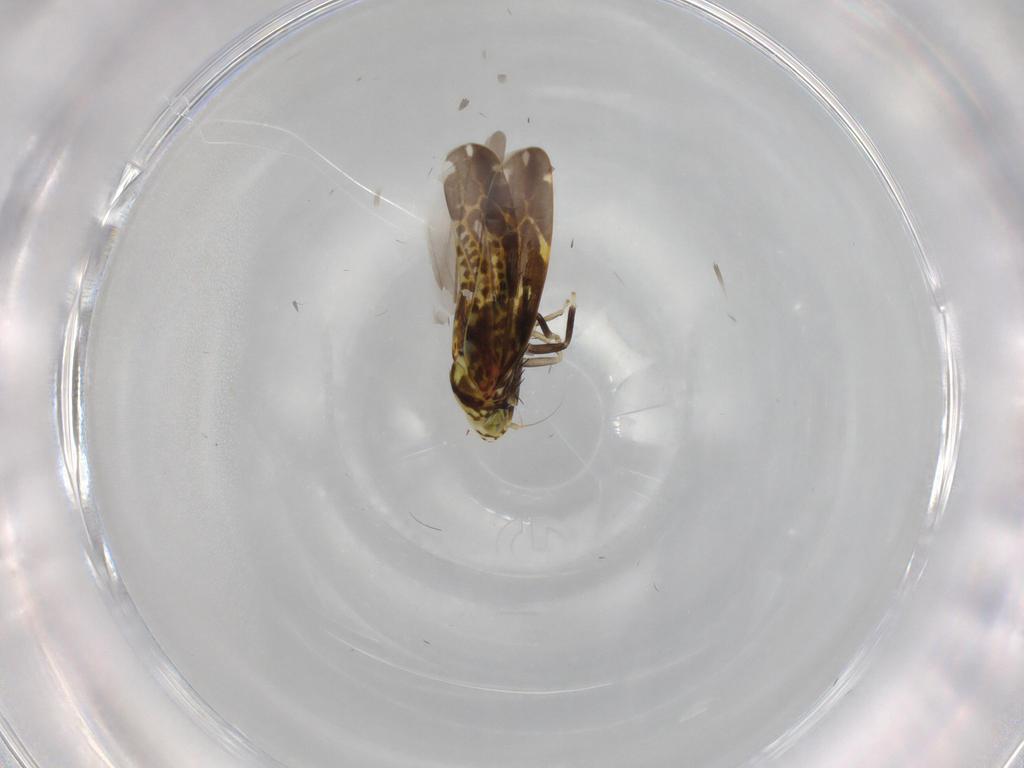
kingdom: Animalia
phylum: Arthropoda
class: Insecta
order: Hemiptera
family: Cicadellidae
